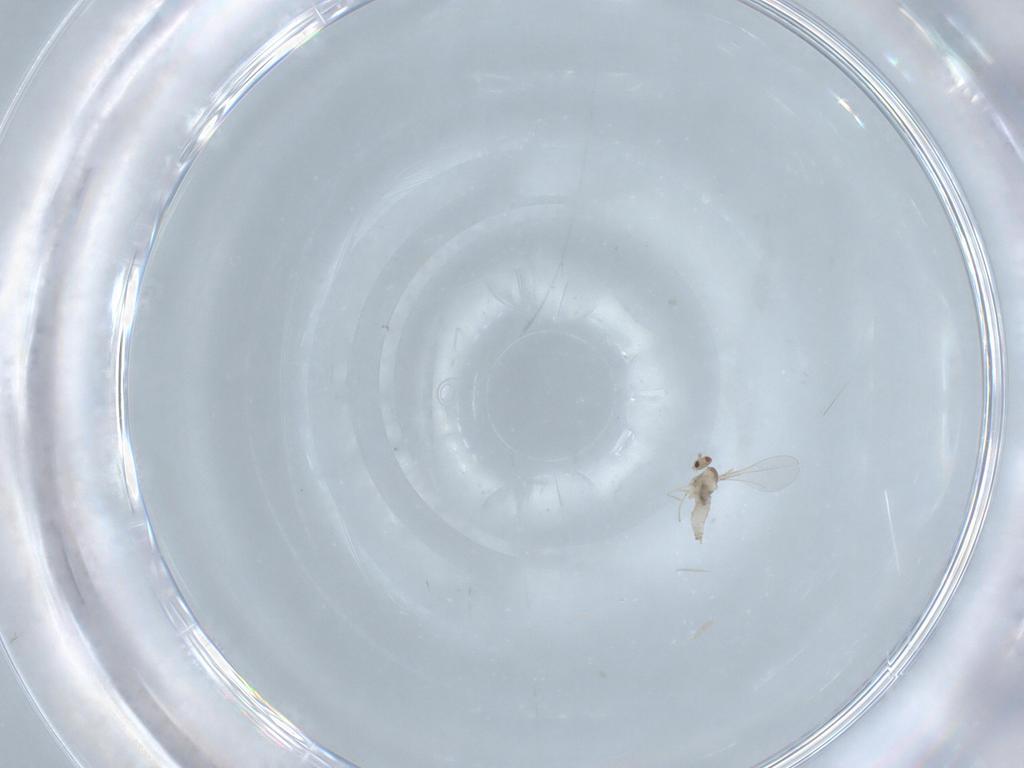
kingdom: Animalia
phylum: Arthropoda
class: Insecta
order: Diptera
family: Cecidomyiidae
